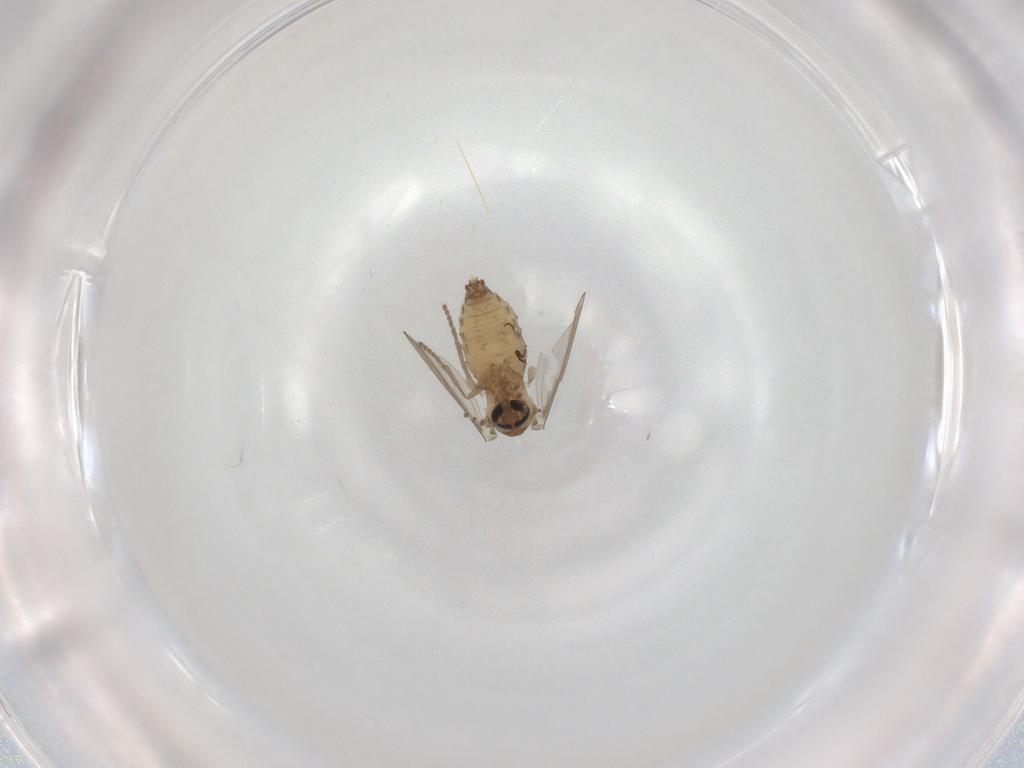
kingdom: Animalia
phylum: Arthropoda
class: Insecta
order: Diptera
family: Psychodidae
